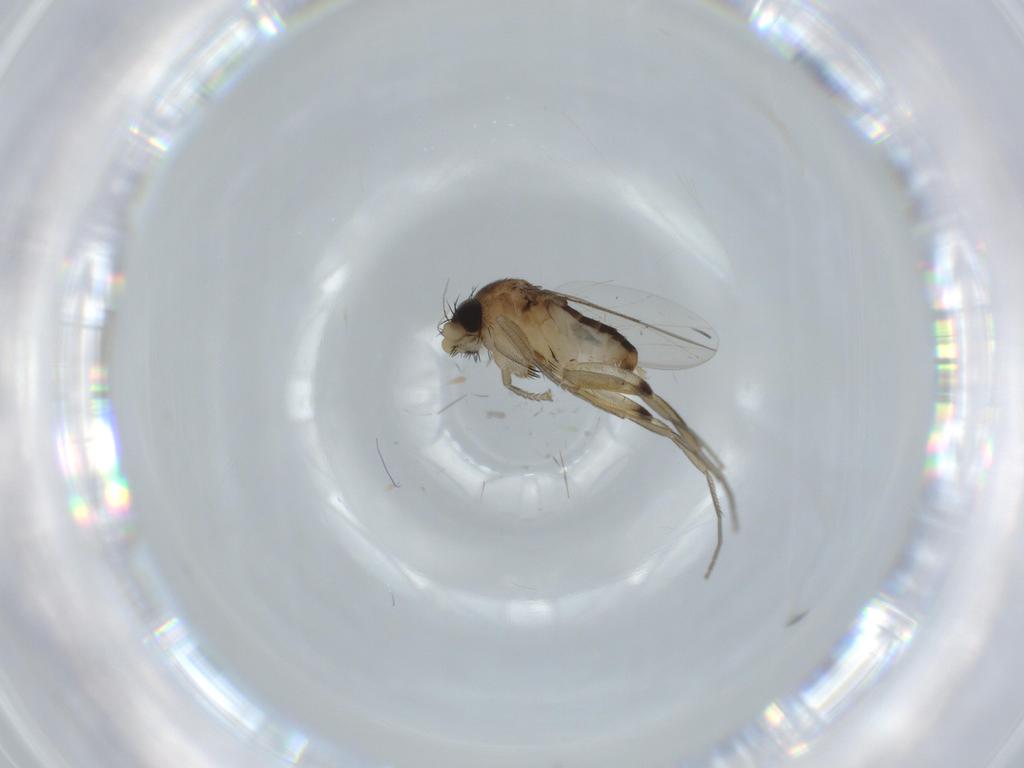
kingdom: Animalia
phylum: Arthropoda
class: Insecta
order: Diptera
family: Phoridae
